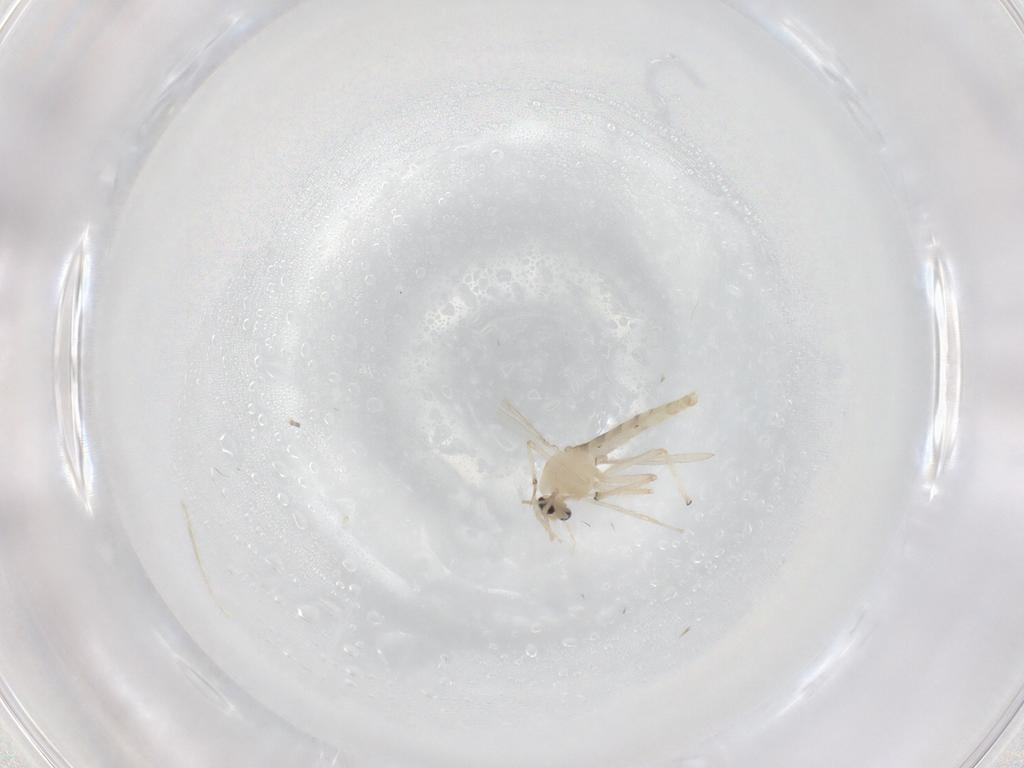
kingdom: Animalia
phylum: Arthropoda
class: Insecta
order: Diptera
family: Chironomidae
